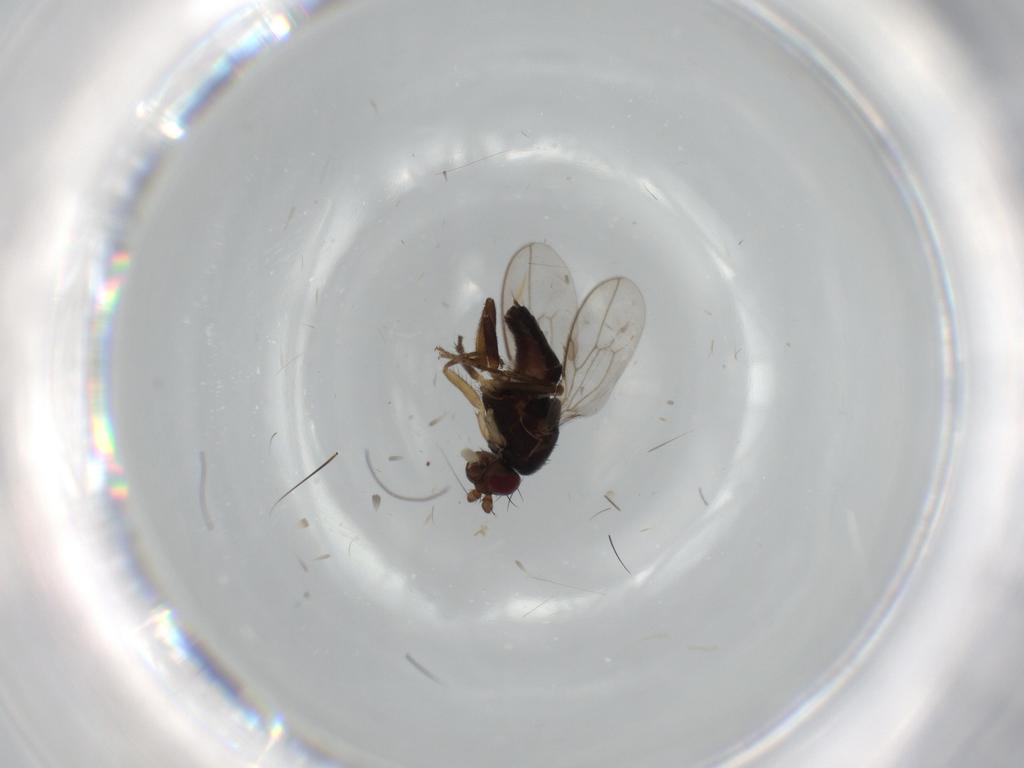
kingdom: Animalia
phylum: Arthropoda
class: Insecta
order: Diptera
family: Sphaeroceridae
